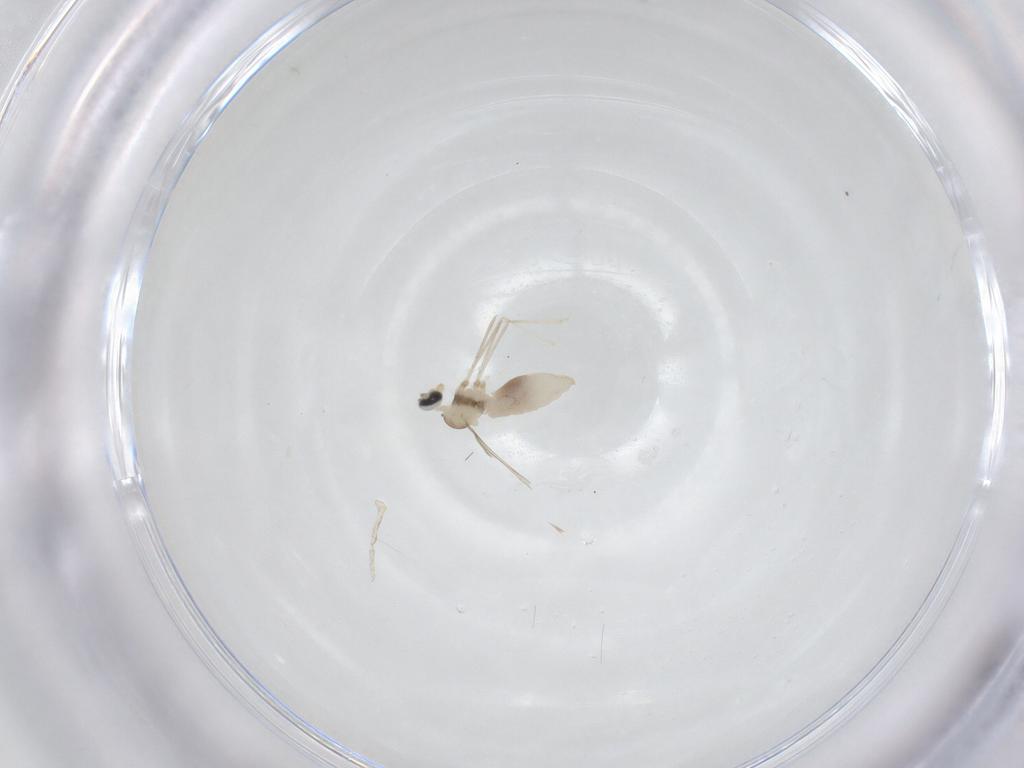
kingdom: Animalia
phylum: Arthropoda
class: Insecta
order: Diptera
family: Cecidomyiidae
